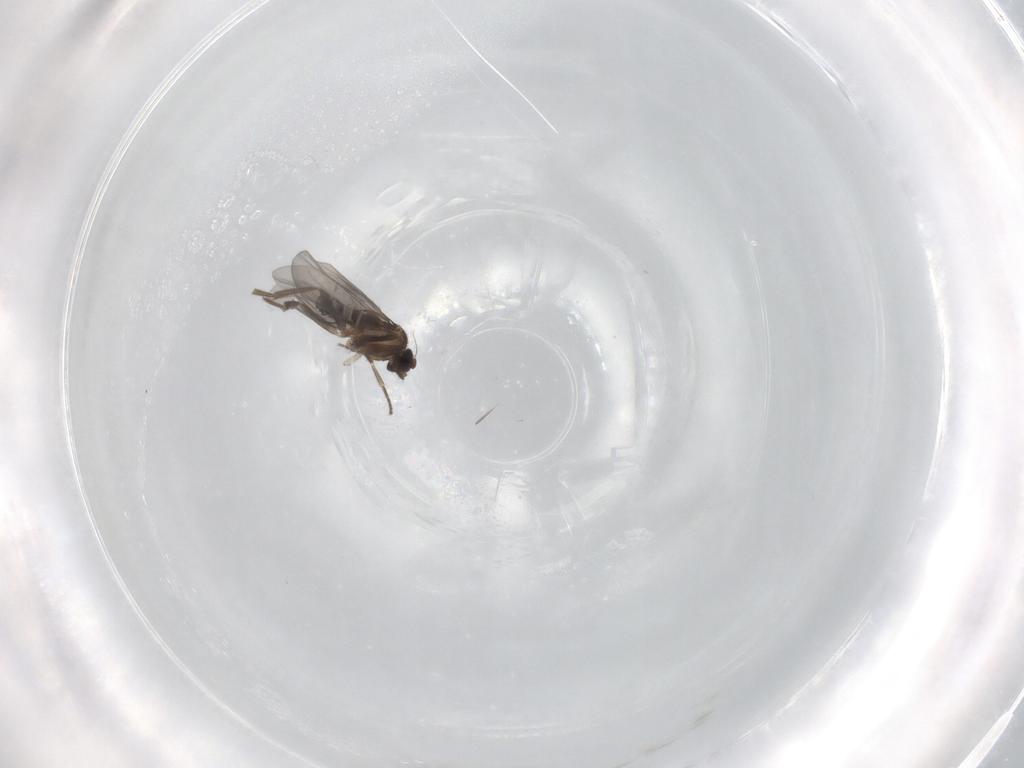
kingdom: Animalia
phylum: Arthropoda
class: Insecta
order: Diptera
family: Phoridae
